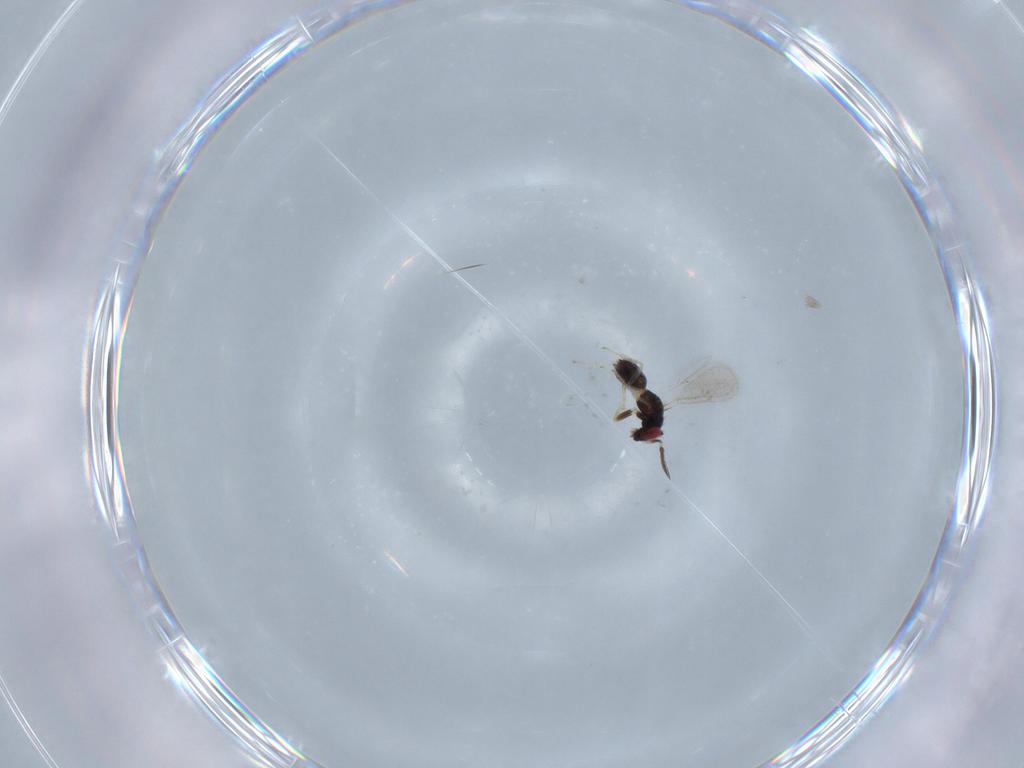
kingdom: Animalia
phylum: Arthropoda
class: Insecta
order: Hymenoptera
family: Eulophidae
